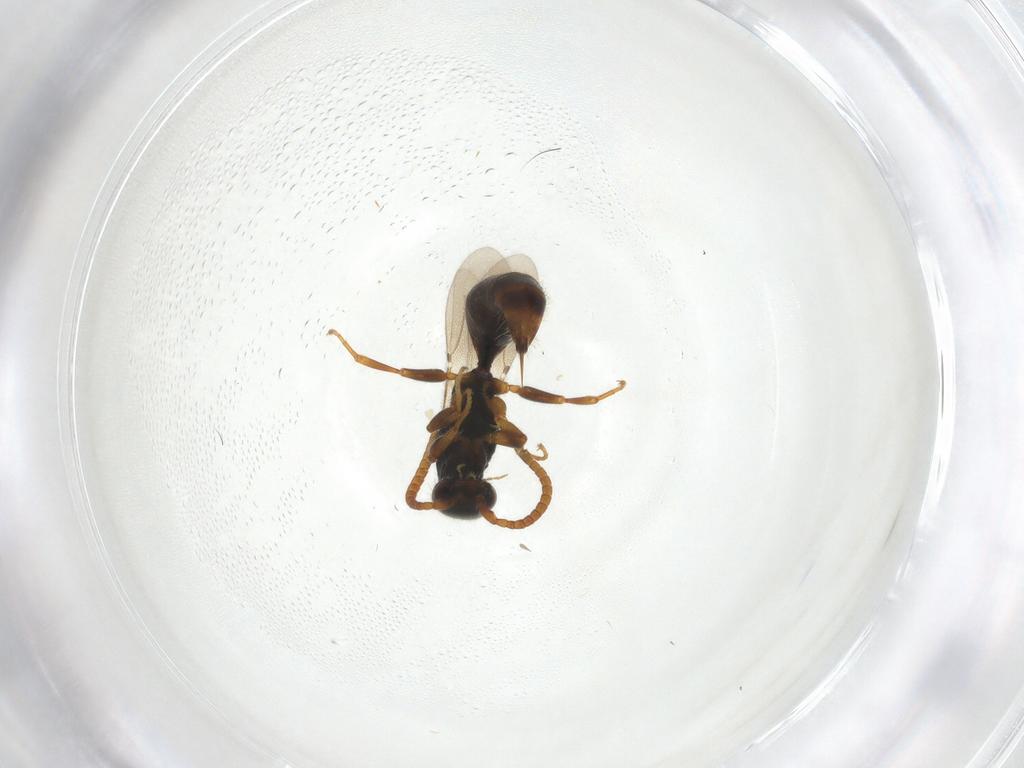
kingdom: Animalia
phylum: Arthropoda
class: Insecta
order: Hymenoptera
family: Bethylidae
